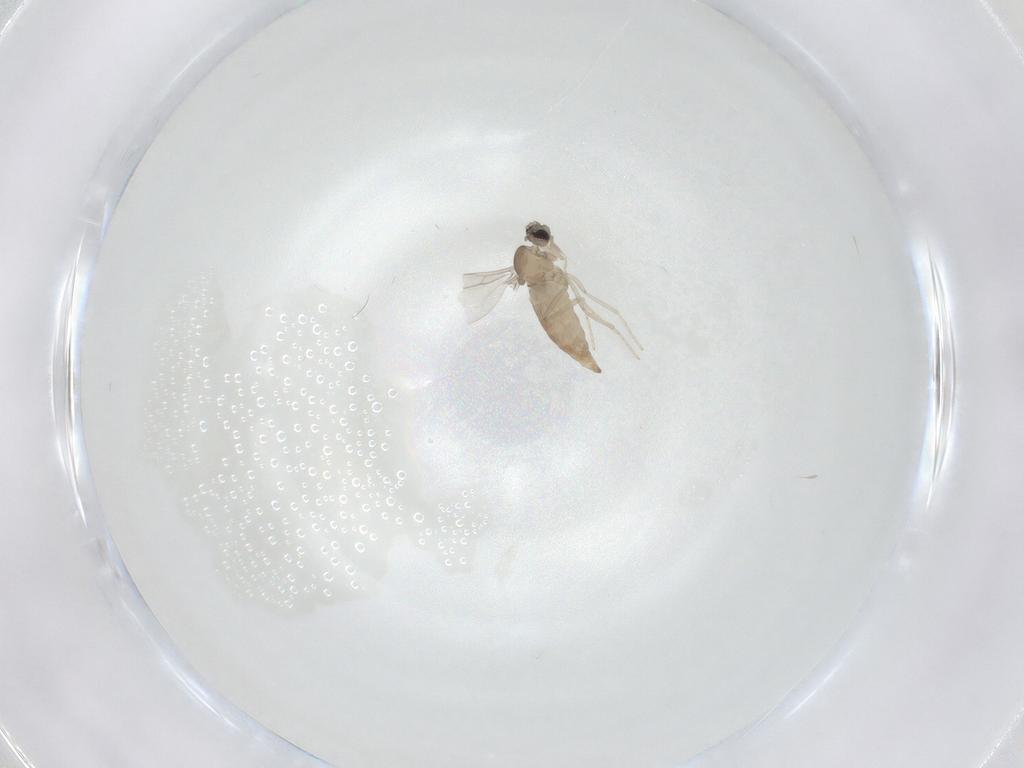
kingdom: Animalia
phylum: Arthropoda
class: Insecta
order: Diptera
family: Cecidomyiidae
